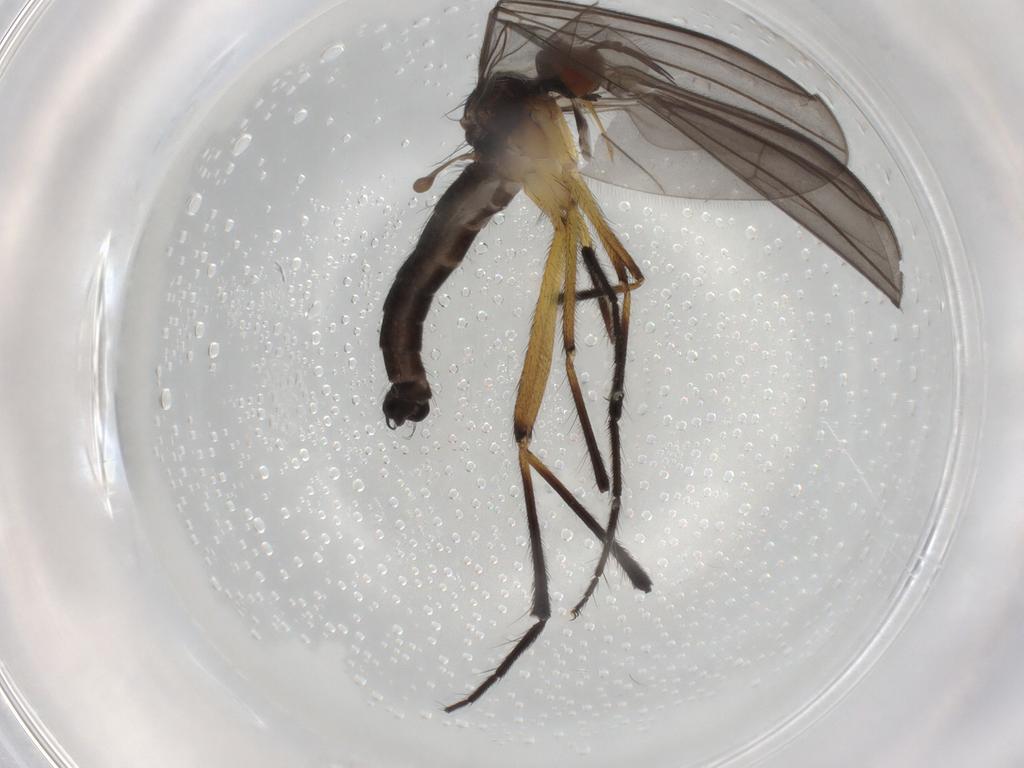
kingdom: Animalia
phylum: Arthropoda
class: Insecta
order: Diptera
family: Empididae
